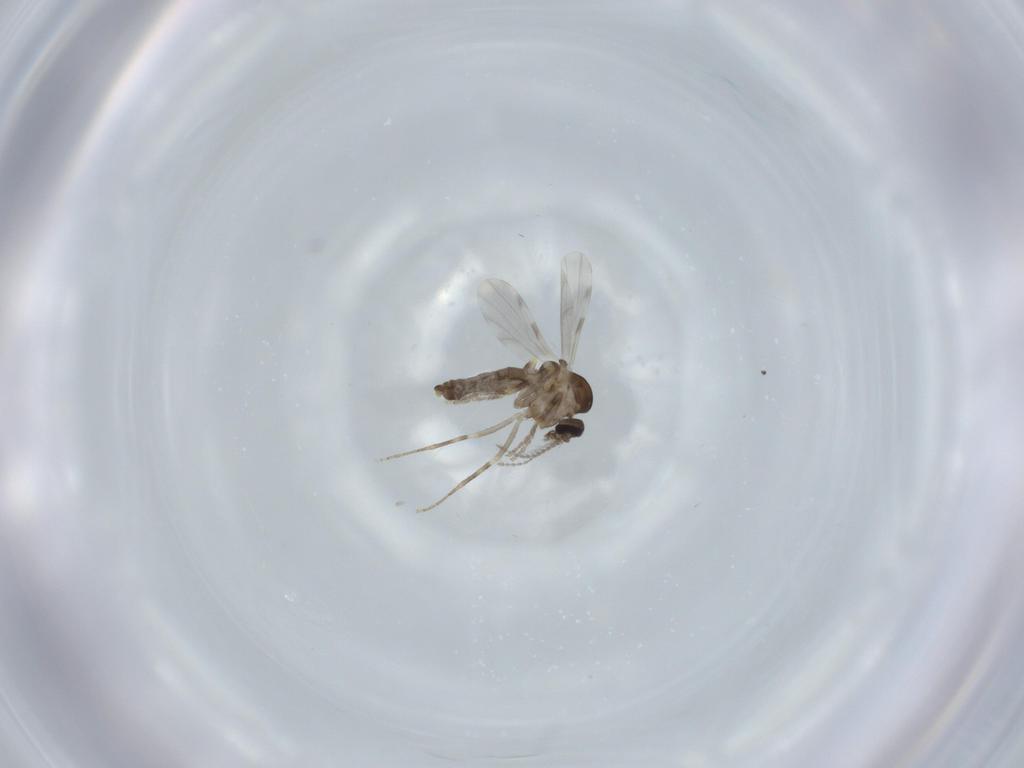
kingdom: Animalia
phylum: Arthropoda
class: Insecta
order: Diptera
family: Ceratopogonidae
